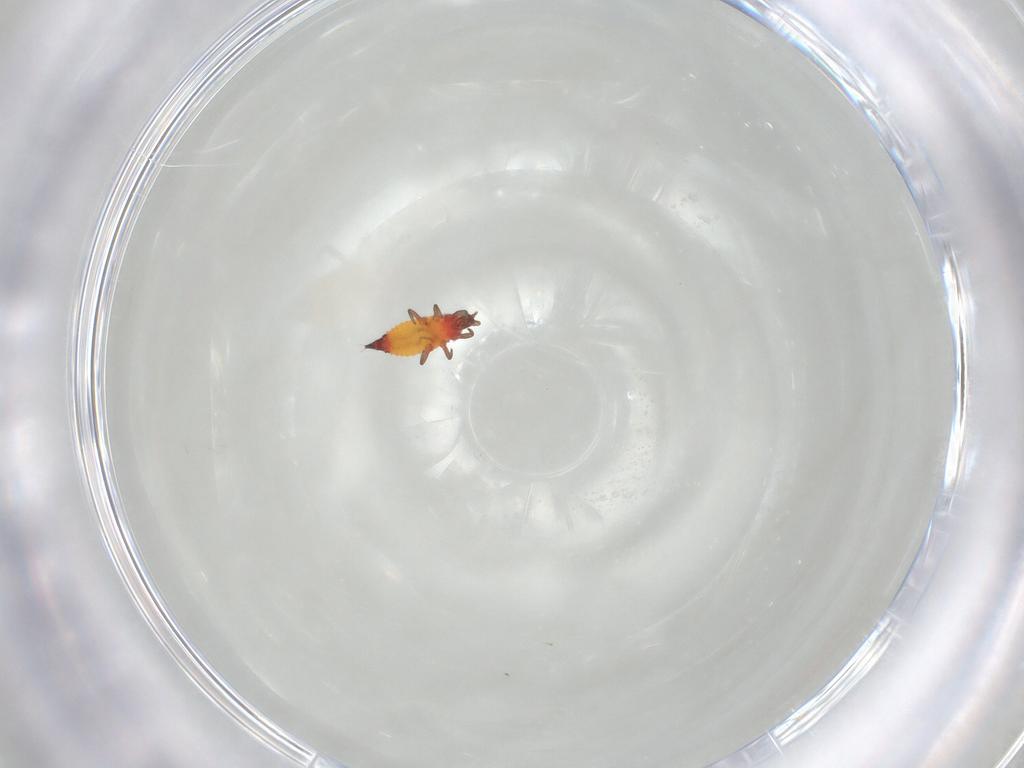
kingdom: Animalia
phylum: Arthropoda
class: Insecta
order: Thysanoptera
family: Phlaeothripidae
